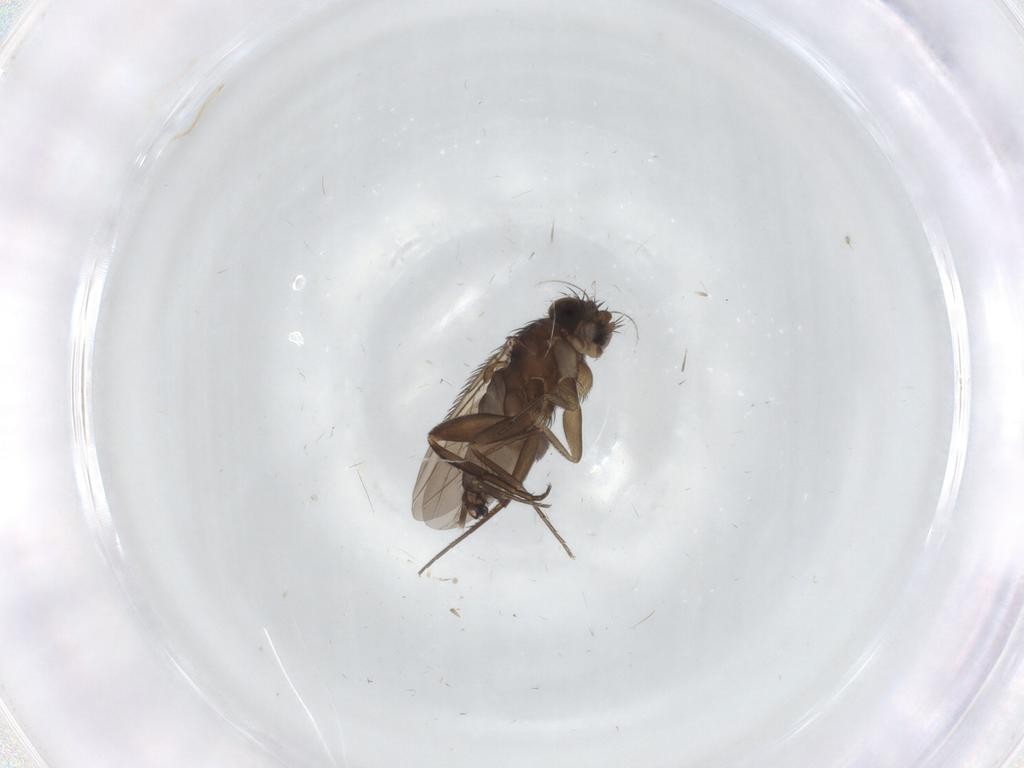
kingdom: Animalia
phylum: Arthropoda
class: Insecta
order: Diptera
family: Phoridae
